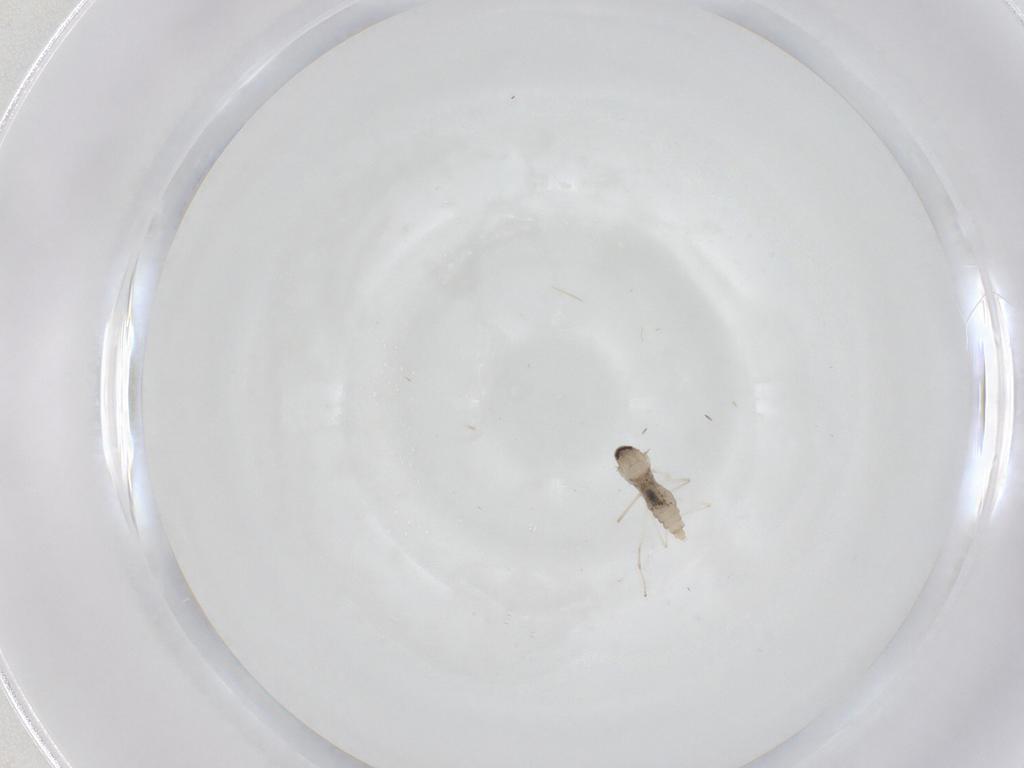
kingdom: Animalia
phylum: Arthropoda
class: Insecta
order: Diptera
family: Cecidomyiidae
